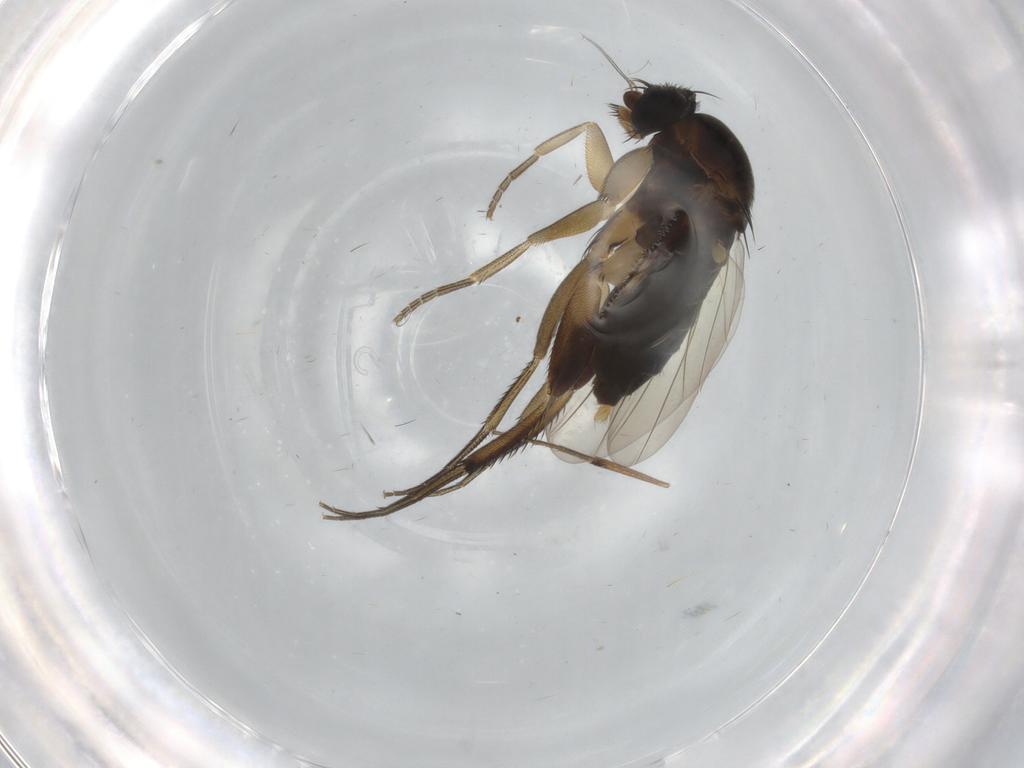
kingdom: Animalia
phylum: Arthropoda
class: Insecta
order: Diptera
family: Phoridae
